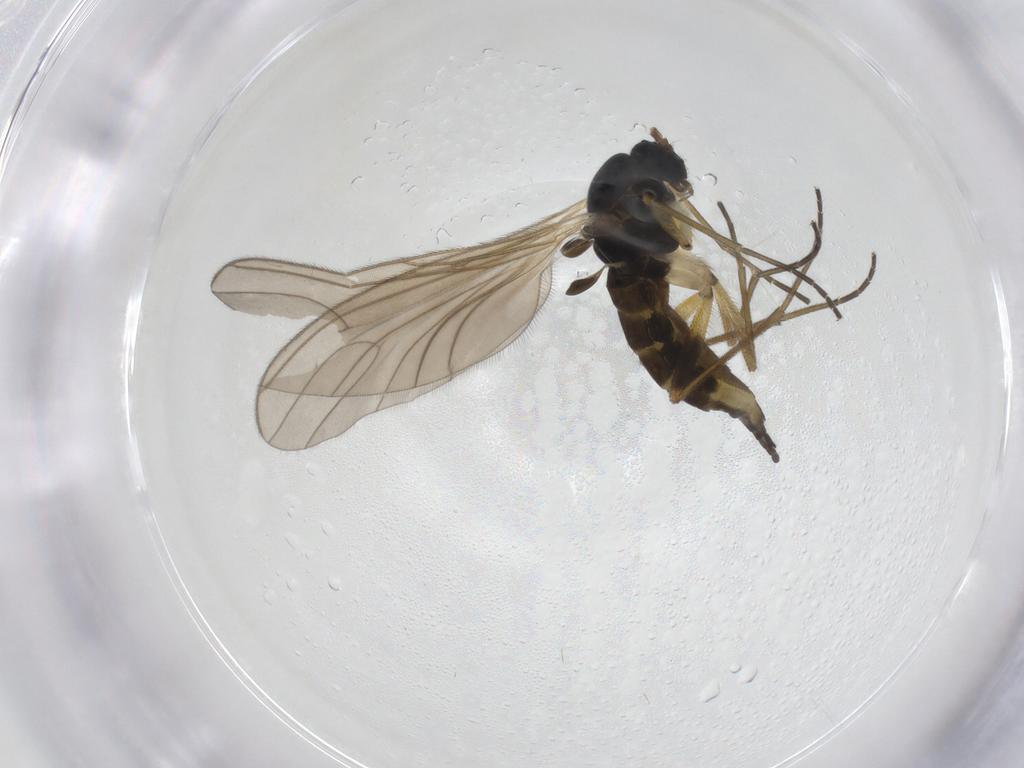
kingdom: Animalia
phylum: Arthropoda
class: Insecta
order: Diptera
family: Sciaridae
